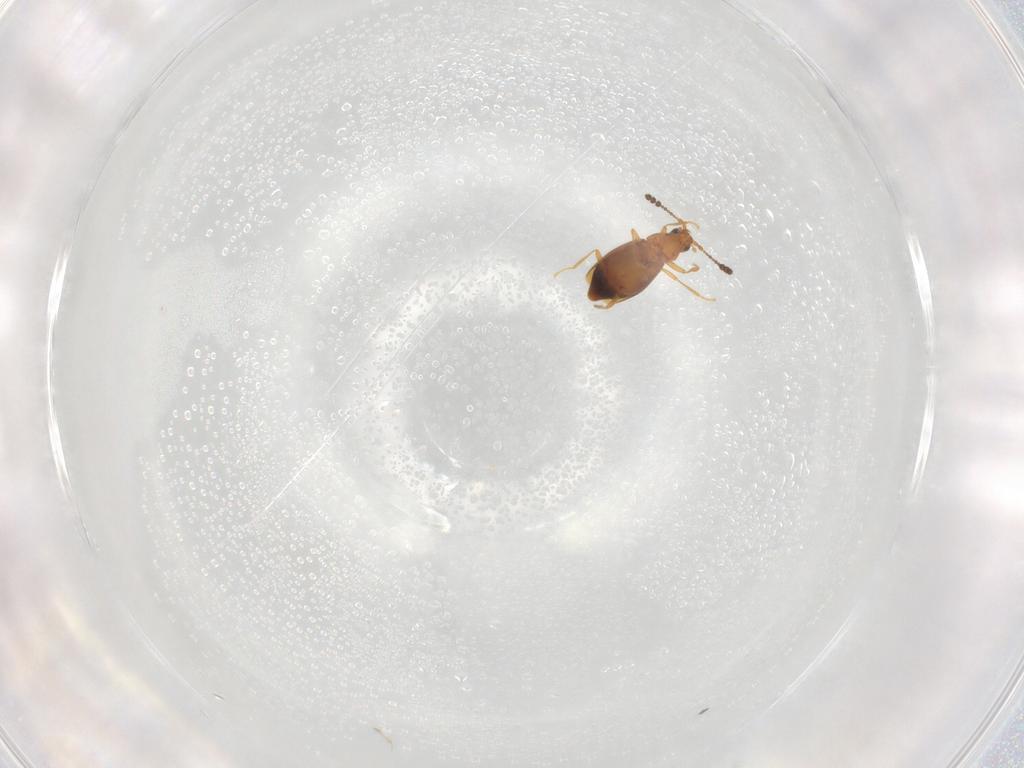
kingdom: Animalia
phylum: Arthropoda
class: Insecta
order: Coleoptera
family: Staphylinidae
